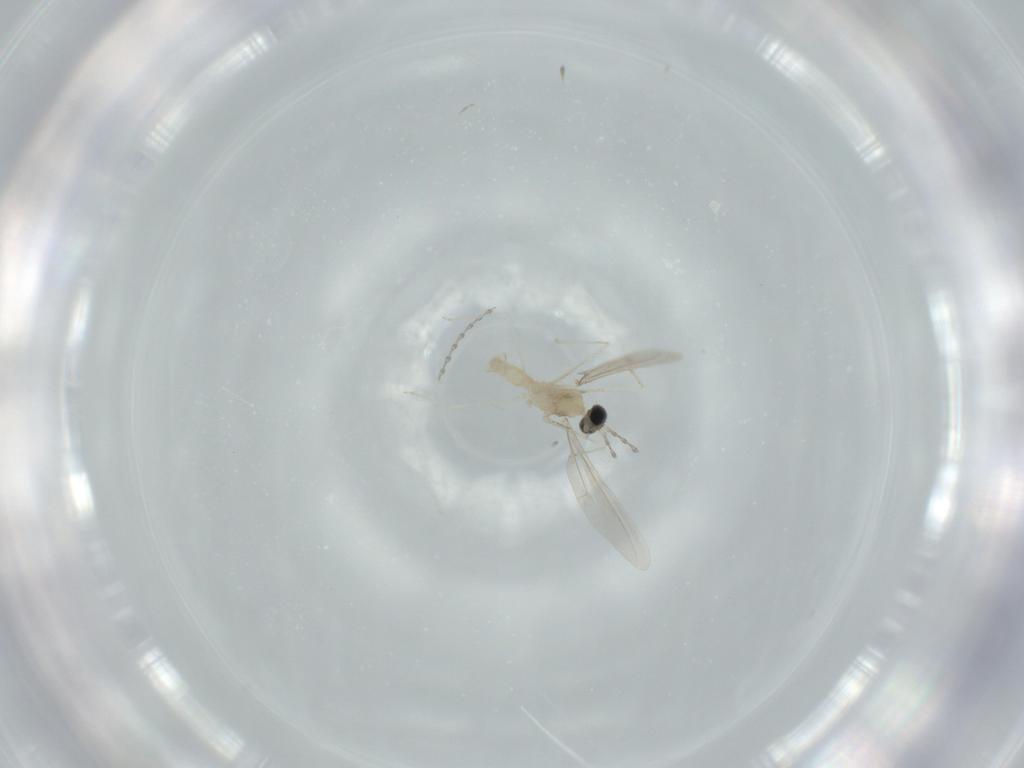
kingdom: Animalia
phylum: Arthropoda
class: Insecta
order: Diptera
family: Cecidomyiidae
